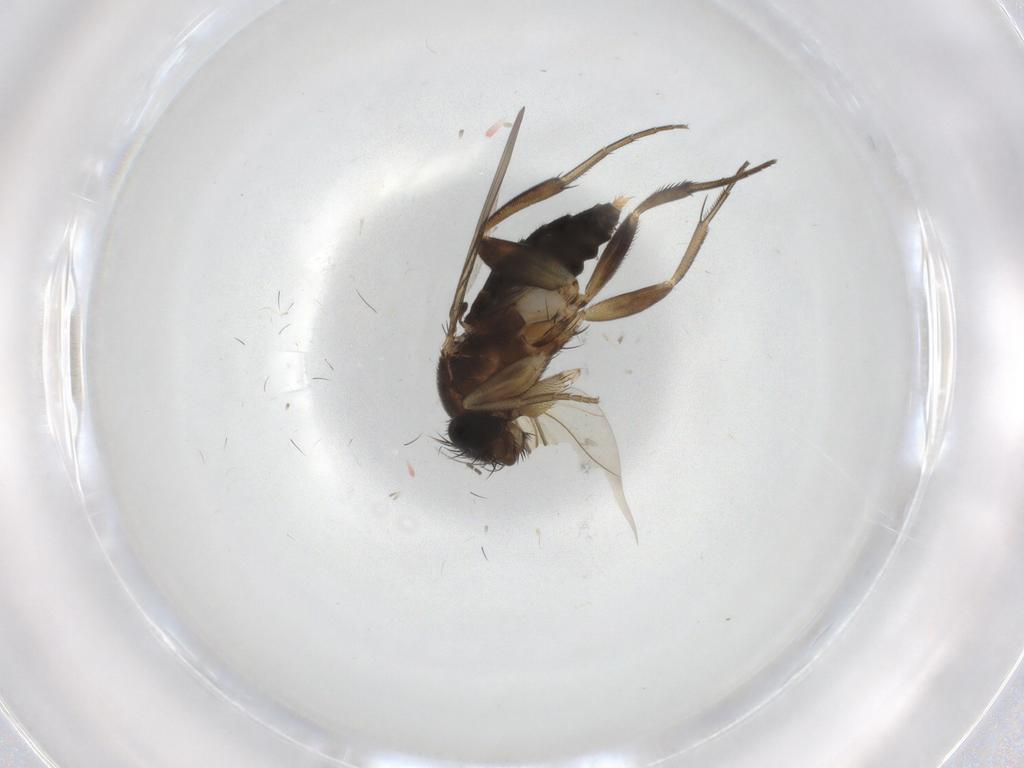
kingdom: Animalia
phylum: Arthropoda
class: Insecta
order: Diptera
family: Phoridae
